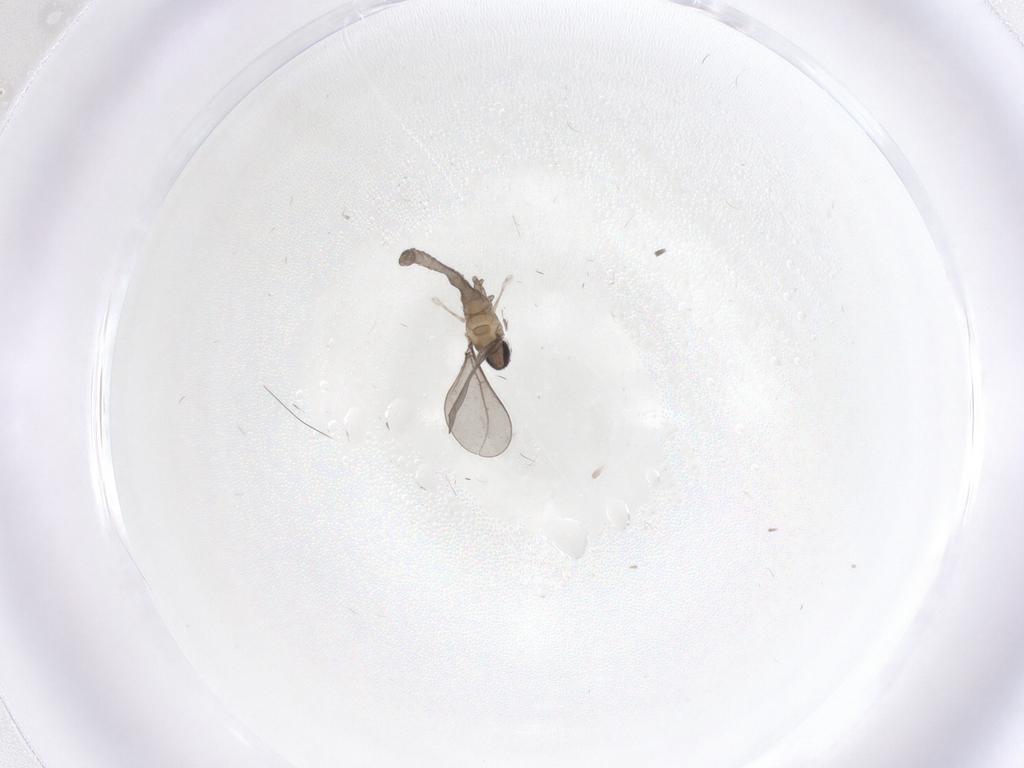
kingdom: Animalia
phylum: Arthropoda
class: Insecta
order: Diptera
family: Cecidomyiidae
